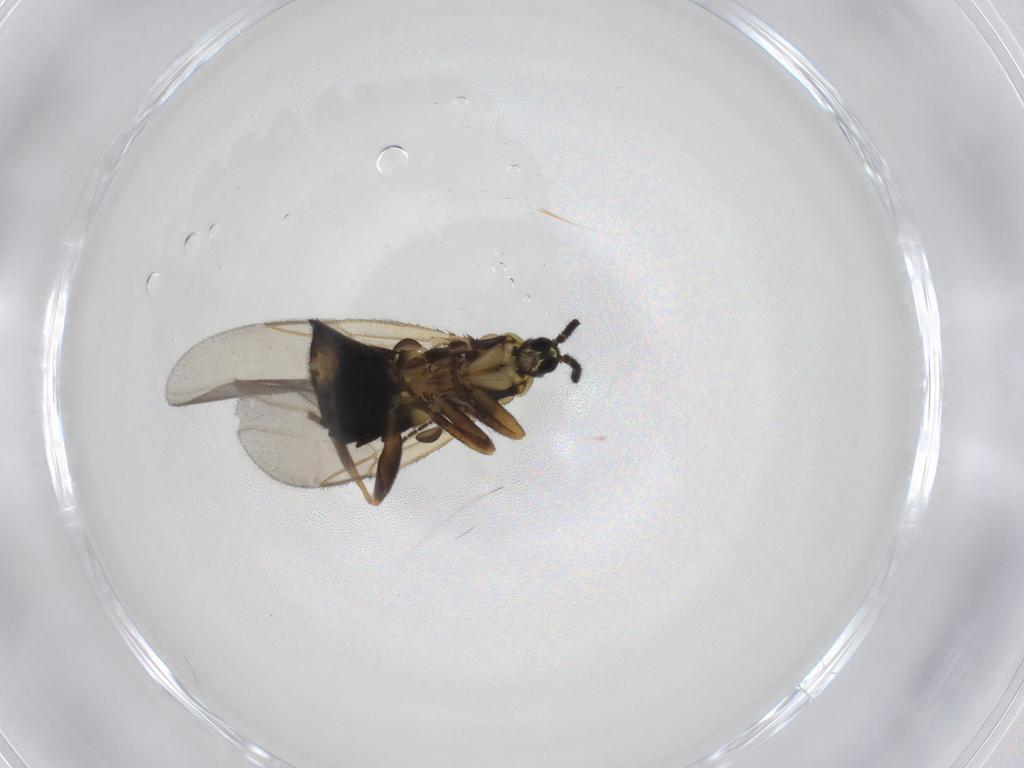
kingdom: Animalia
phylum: Arthropoda
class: Insecta
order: Diptera
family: Scatopsidae
